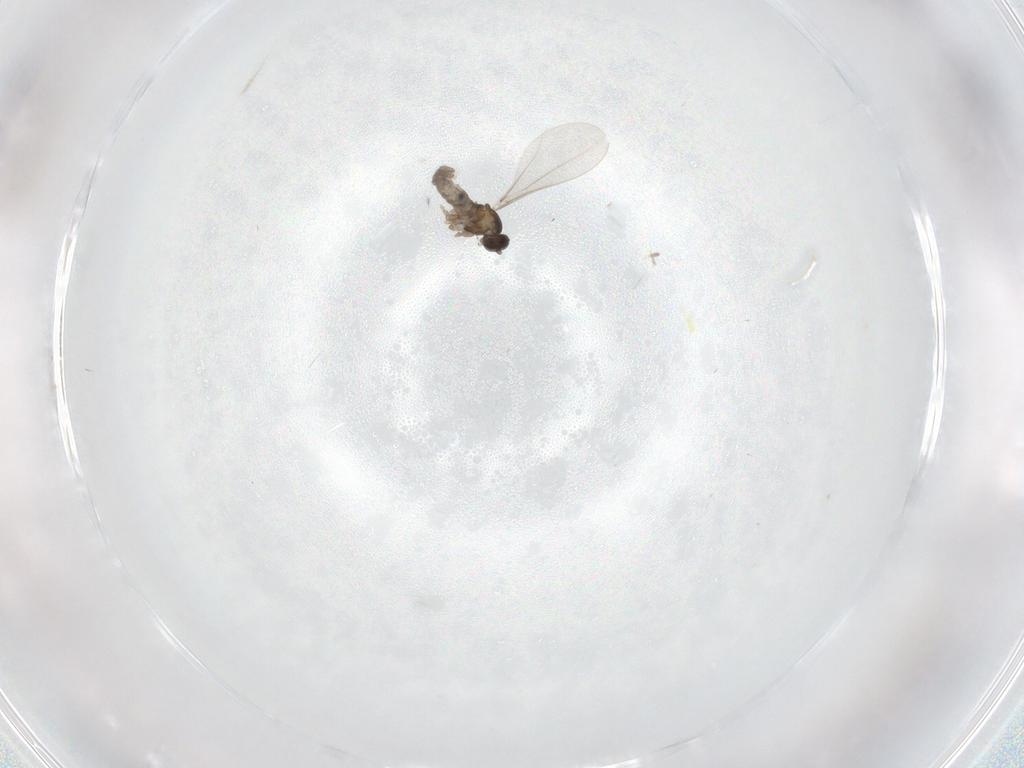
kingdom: Animalia
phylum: Arthropoda
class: Insecta
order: Diptera
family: Cecidomyiidae
